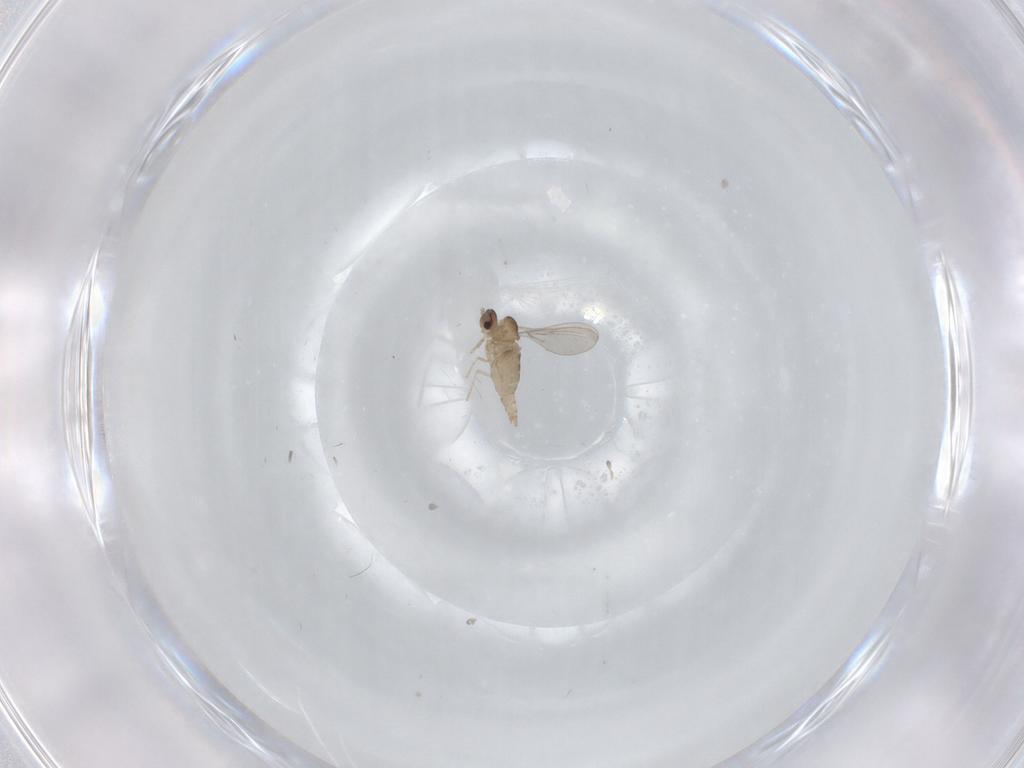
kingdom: Animalia
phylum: Arthropoda
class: Insecta
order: Diptera
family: Cecidomyiidae
